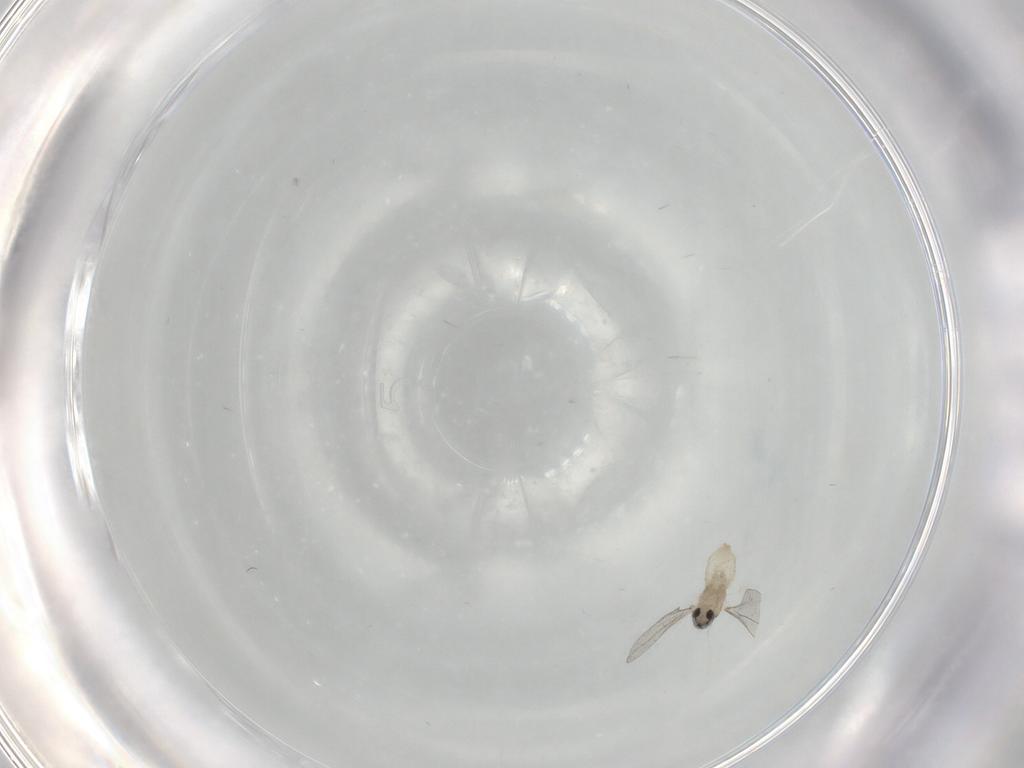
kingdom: Animalia
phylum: Arthropoda
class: Insecta
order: Diptera
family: Cecidomyiidae
